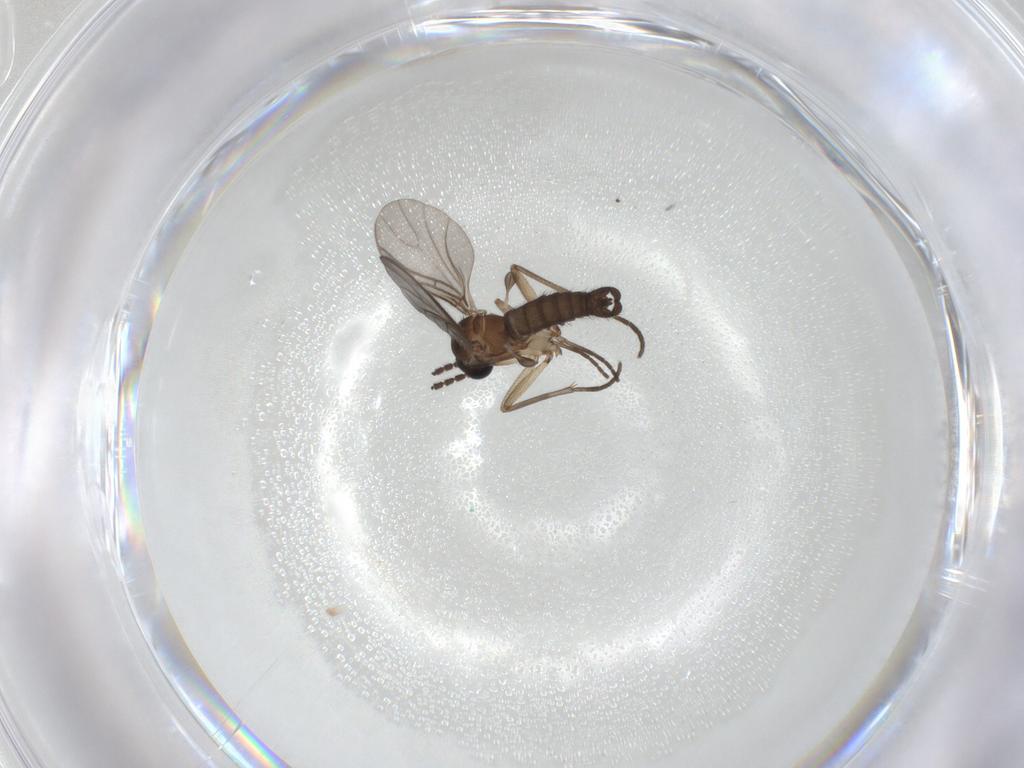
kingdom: Animalia
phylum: Arthropoda
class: Insecta
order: Diptera
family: Sciaridae
